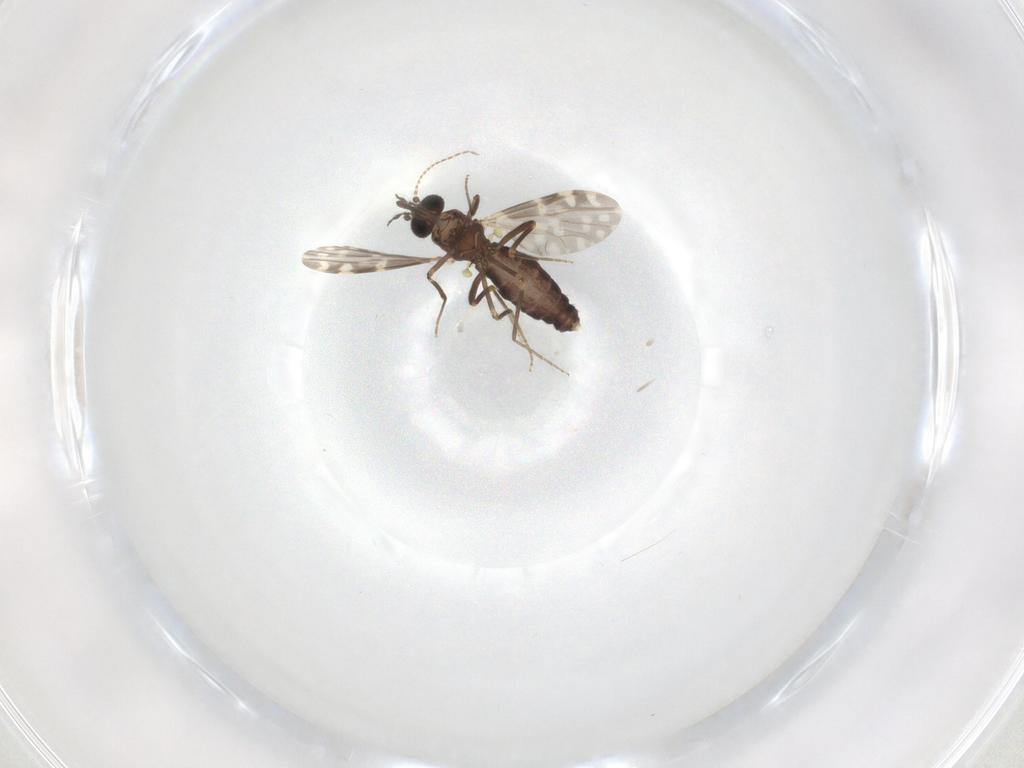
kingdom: Animalia
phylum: Arthropoda
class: Insecta
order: Diptera
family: Ceratopogonidae
